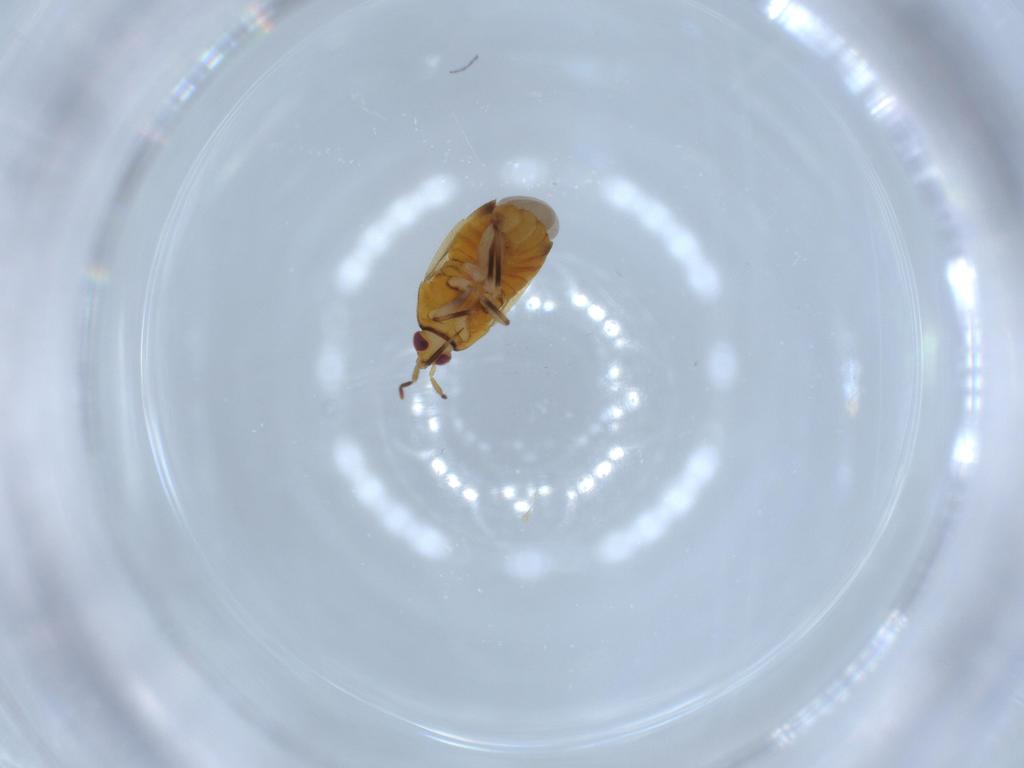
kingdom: Animalia
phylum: Arthropoda
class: Insecta
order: Hemiptera
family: Anthocoridae
